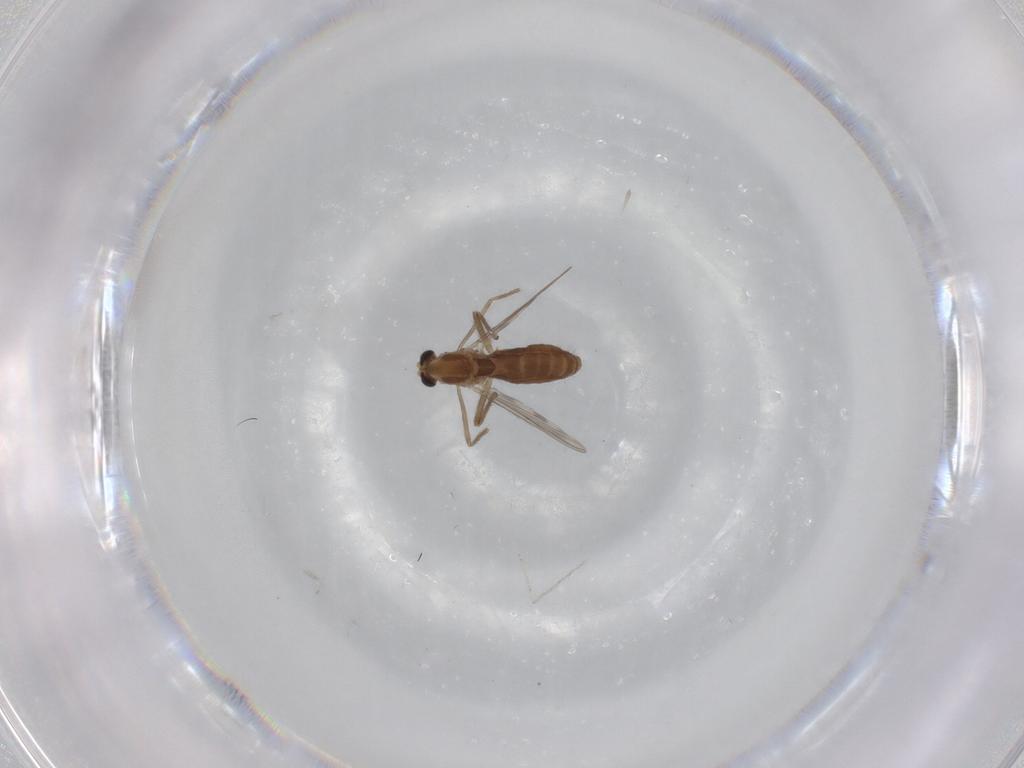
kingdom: Animalia
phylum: Arthropoda
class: Insecta
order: Diptera
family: Chironomidae
